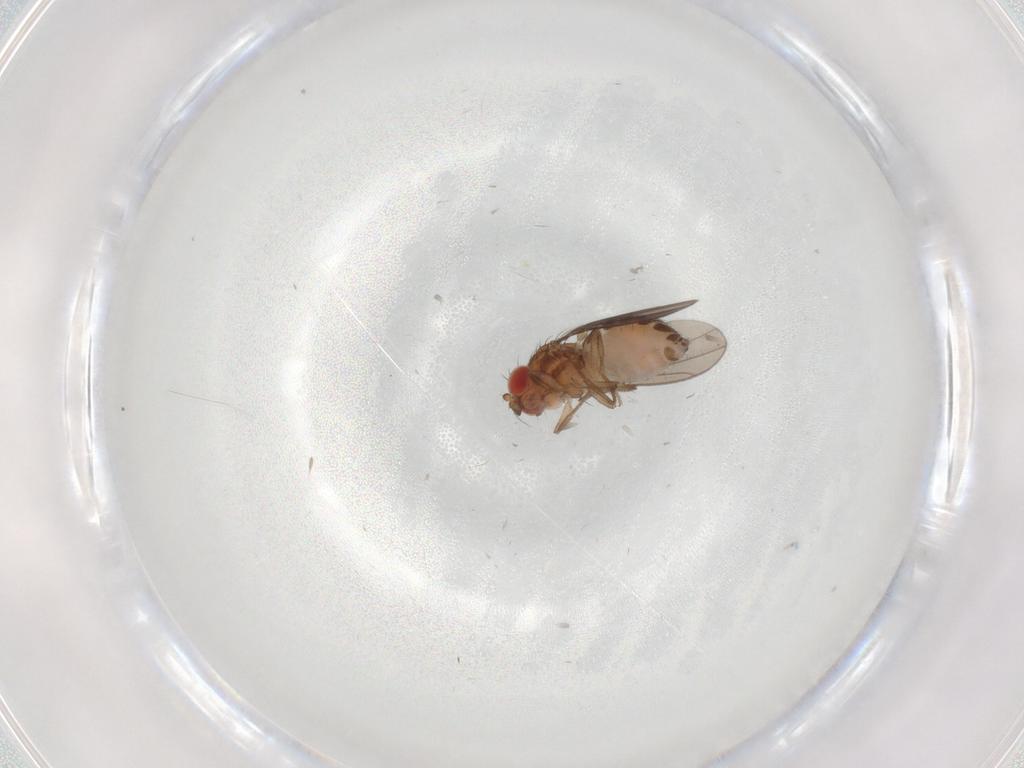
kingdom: Animalia
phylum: Arthropoda
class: Insecta
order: Diptera
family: Drosophilidae
